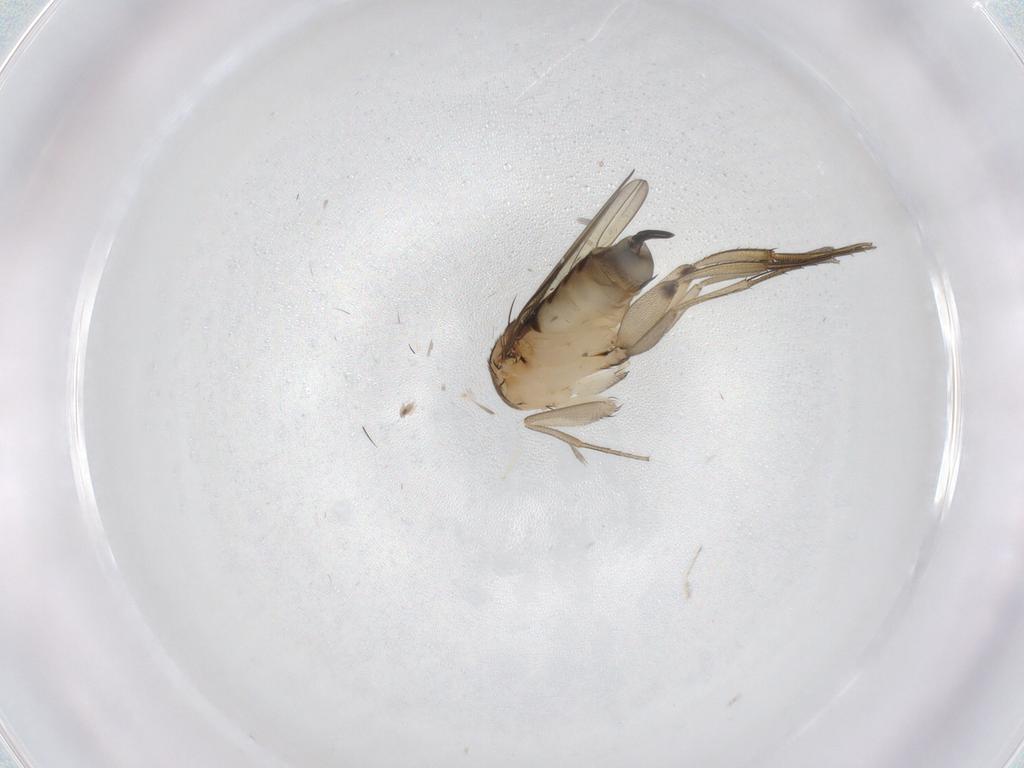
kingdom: Animalia
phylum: Arthropoda
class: Insecta
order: Diptera
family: Phoridae
